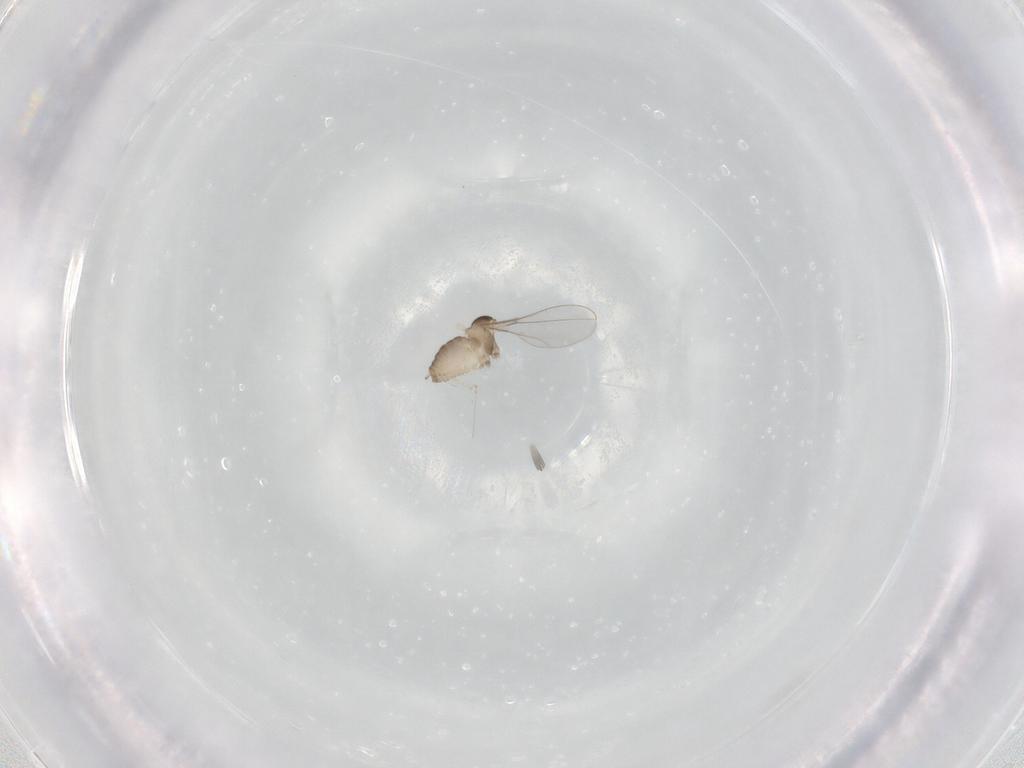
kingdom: Animalia
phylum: Arthropoda
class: Insecta
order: Diptera
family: Cecidomyiidae
